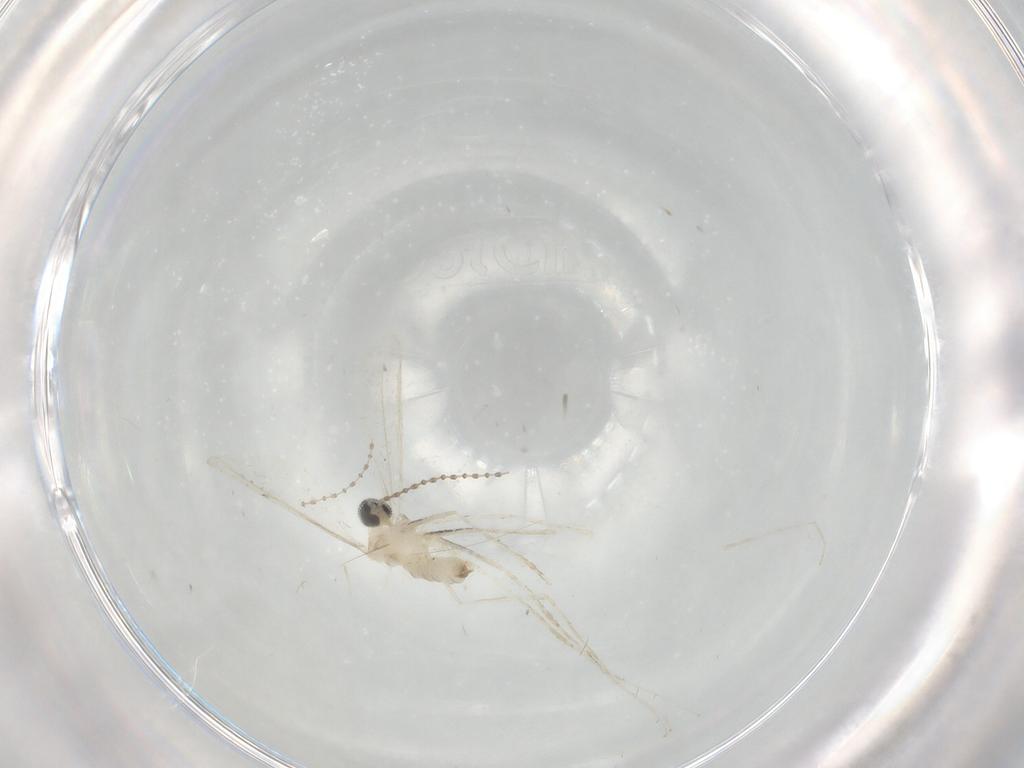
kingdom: Animalia
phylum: Arthropoda
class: Insecta
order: Diptera
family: Cecidomyiidae
